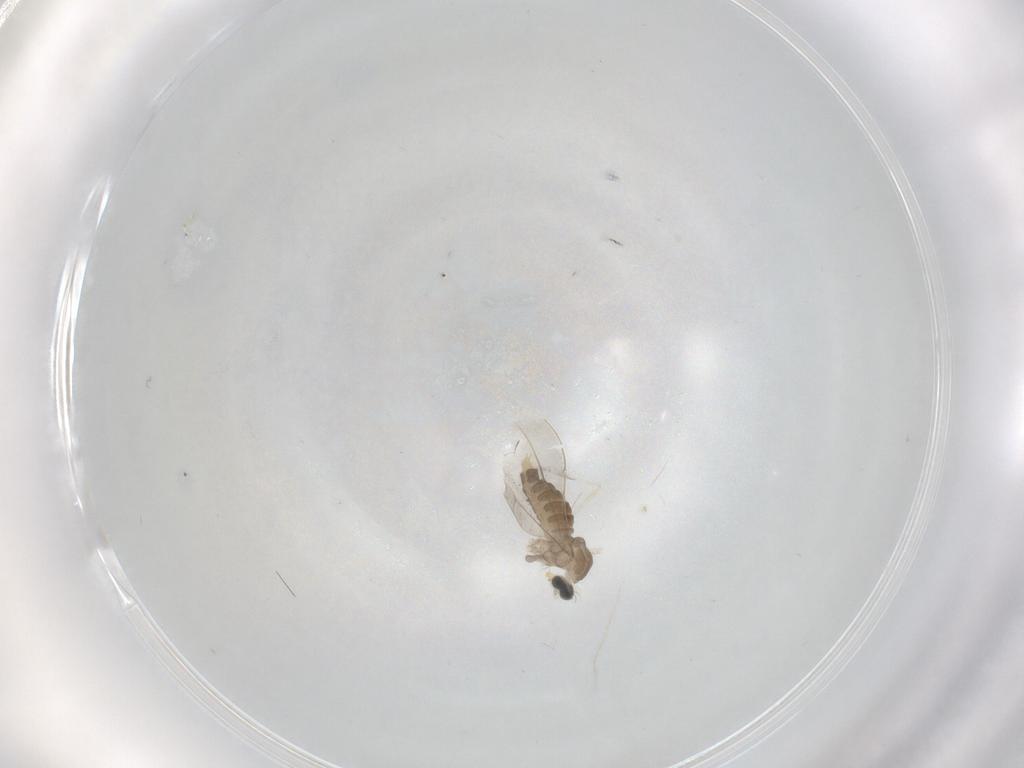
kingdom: Animalia
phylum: Arthropoda
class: Insecta
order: Diptera
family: Cecidomyiidae
